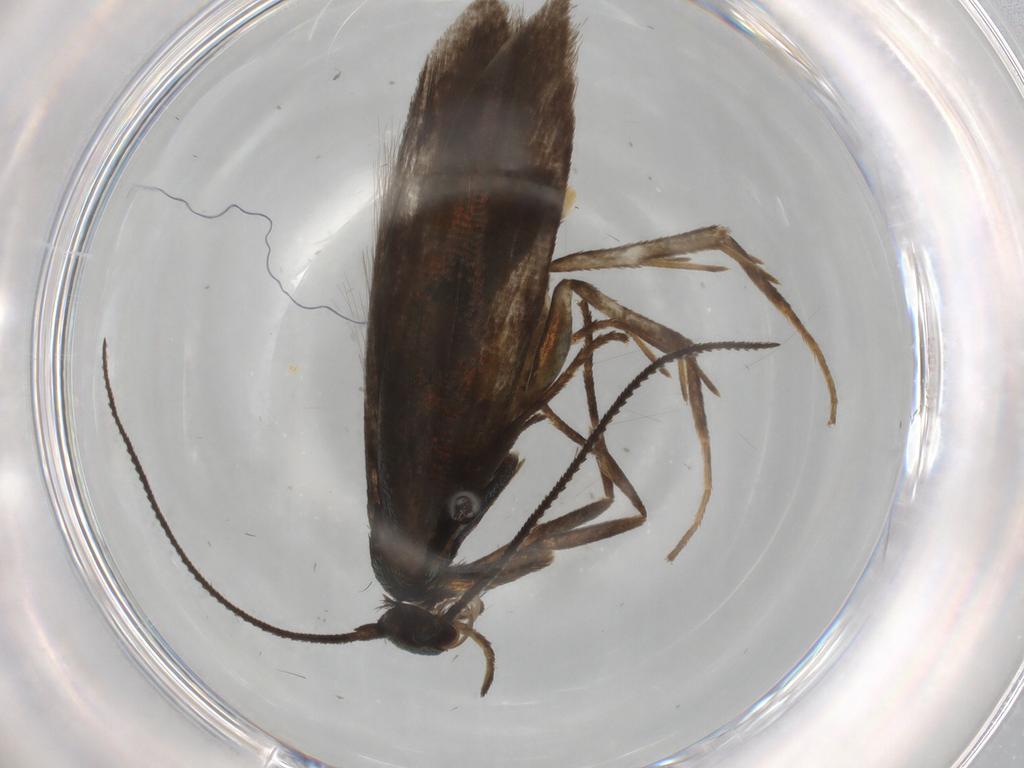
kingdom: Animalia
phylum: Arthropoda
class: Insecta
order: Lepidoptera
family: Argyresthiidae
